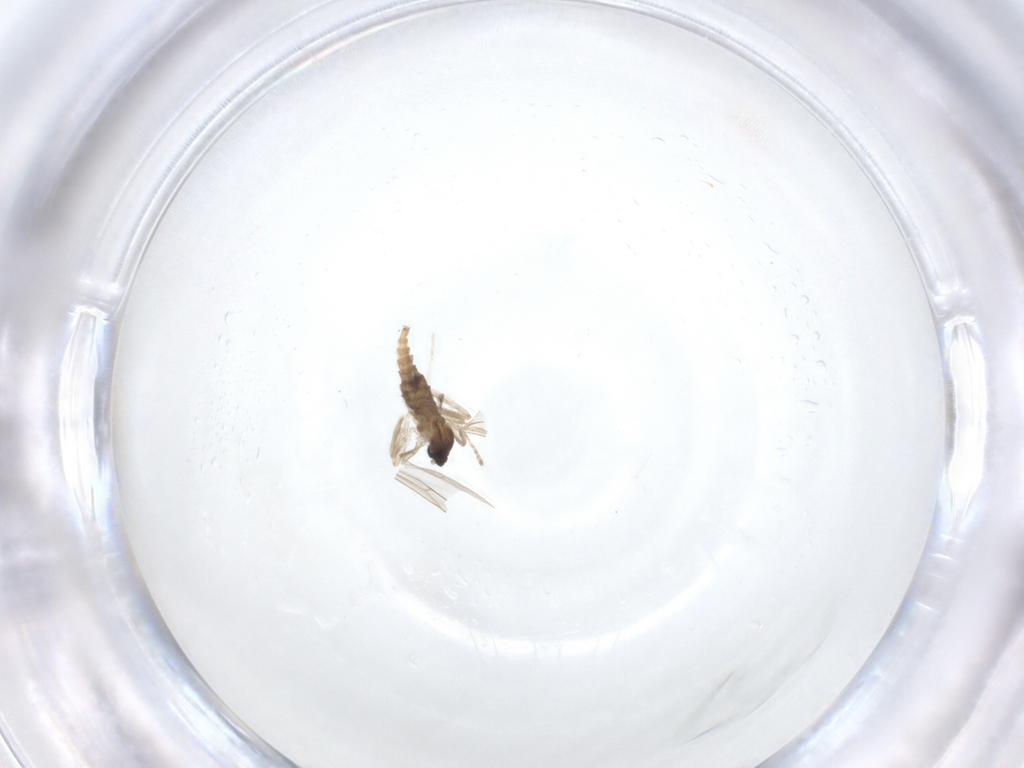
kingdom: Animalia
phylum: Arthropoda
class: Insecta
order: Diptera
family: Cecidomyiidae
